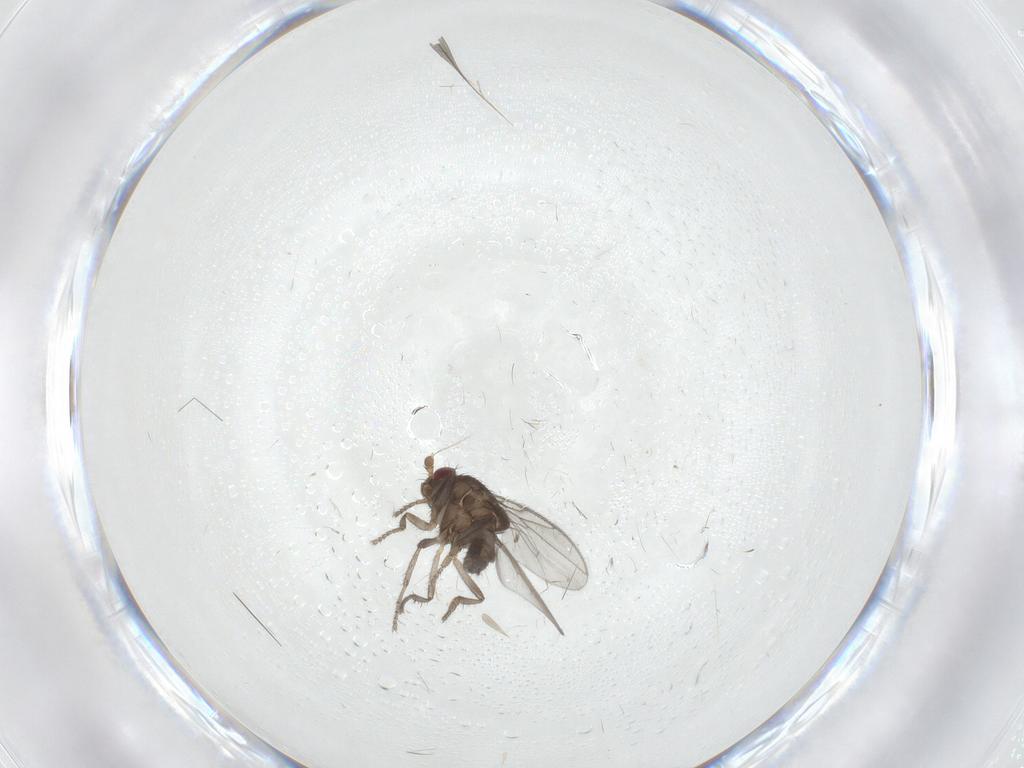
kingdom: Animalia
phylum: Arthropoda
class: Insecta
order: Diptera
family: Sphaeroceridae
